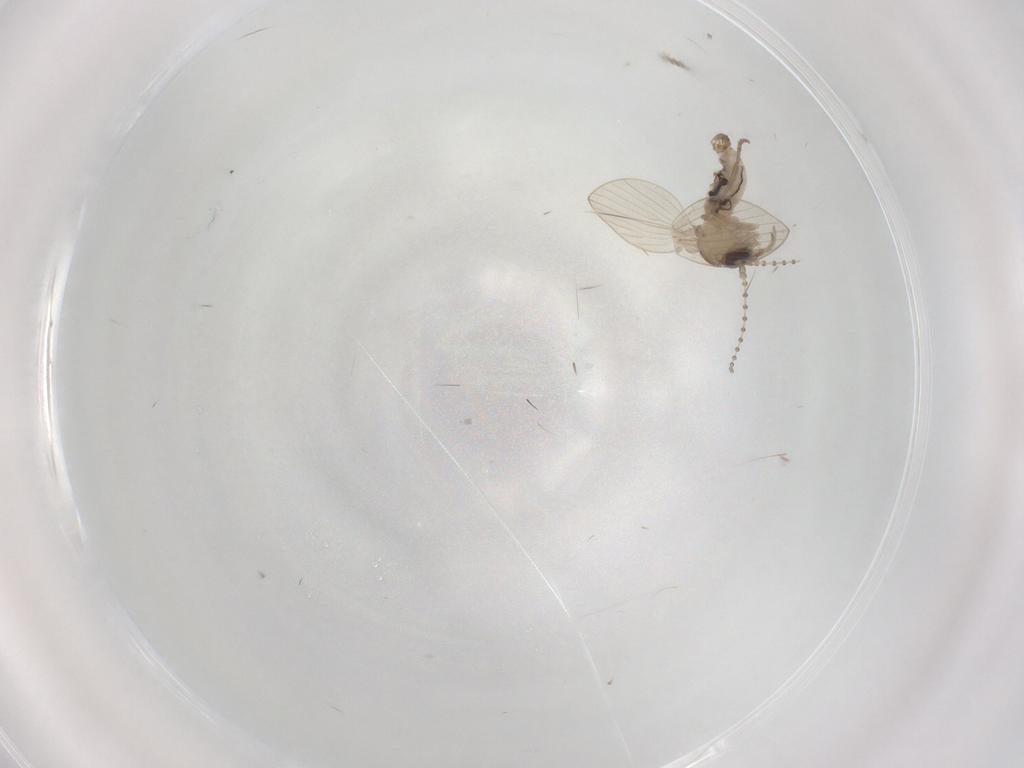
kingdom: Animalia
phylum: Arthropoda
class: Insecta
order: Diptera
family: Psychodidae
